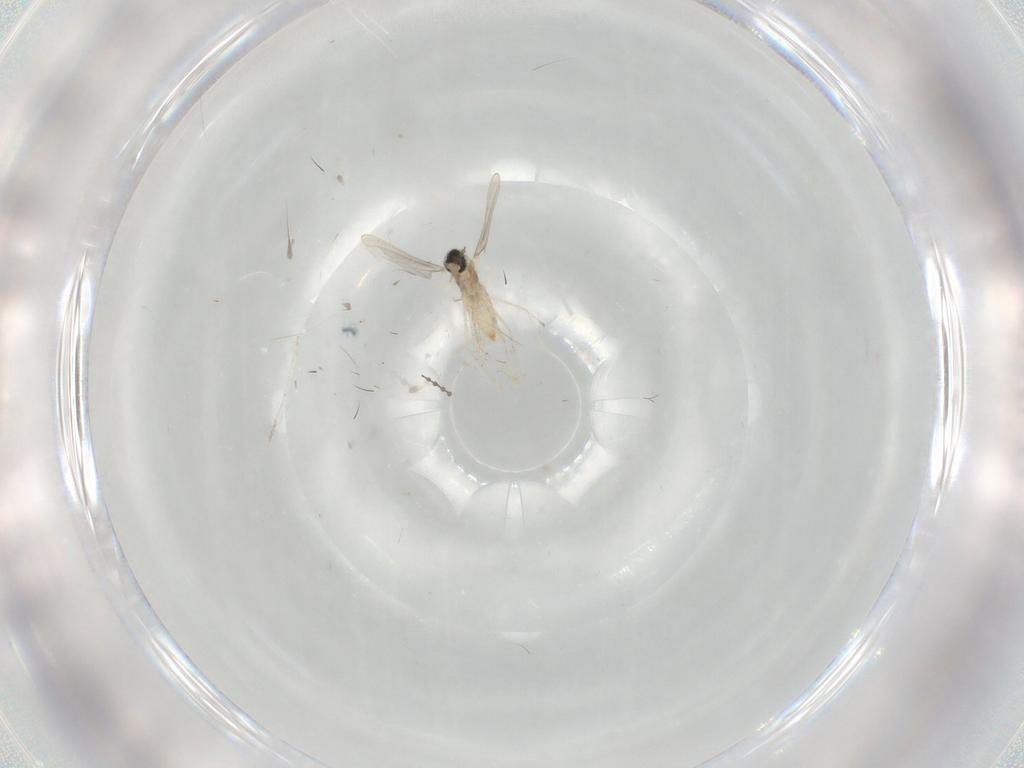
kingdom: Animalia
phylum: Arthropoda
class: Insecta
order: Diptera
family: Cecidomyiidae
